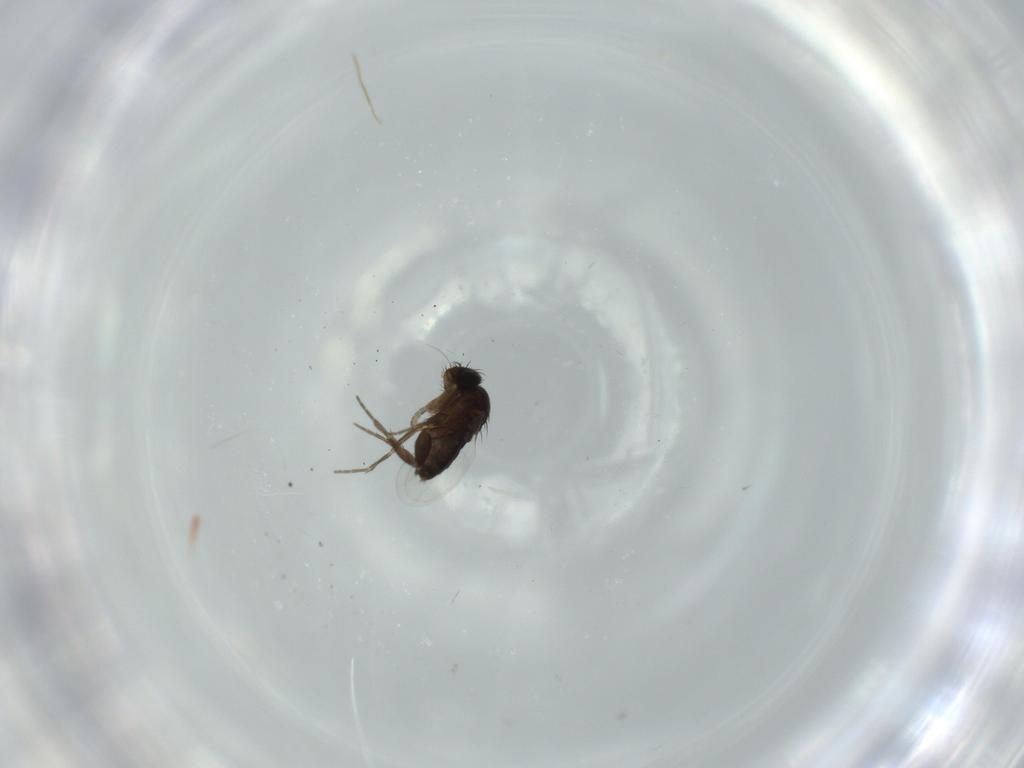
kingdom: Animalia
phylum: Arthropoda
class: Insecta
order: Diptera
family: Phoridae
